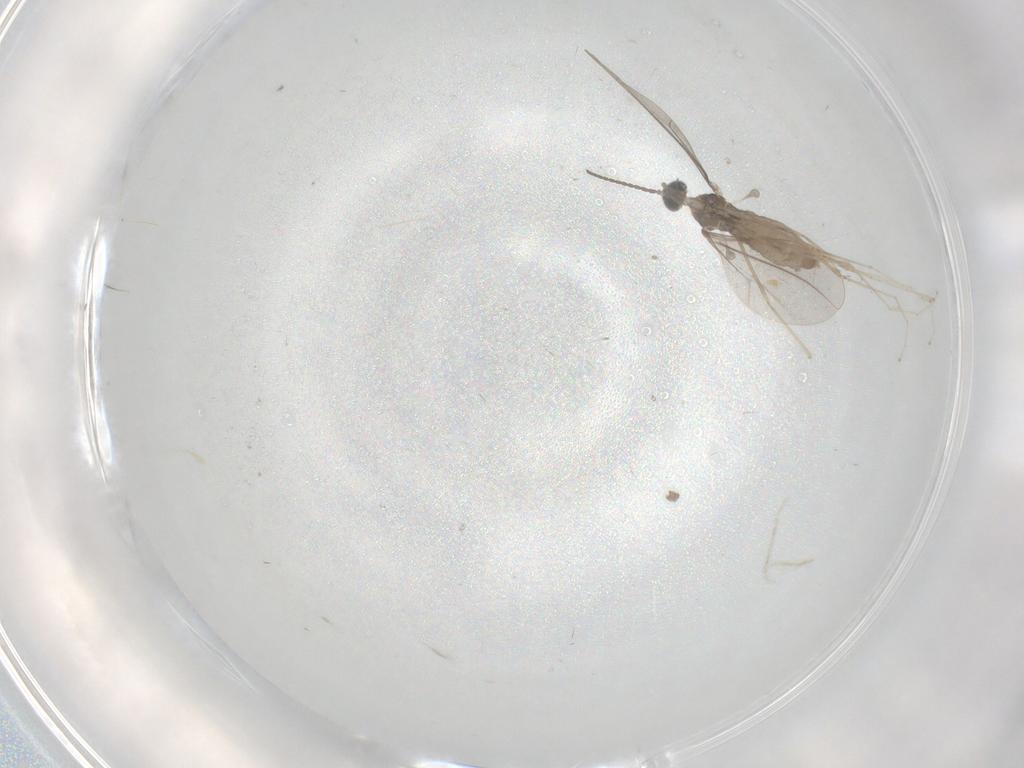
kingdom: Animalia
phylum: Arthropoda
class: Insecta
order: Diptera
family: Cecidomyiidae
